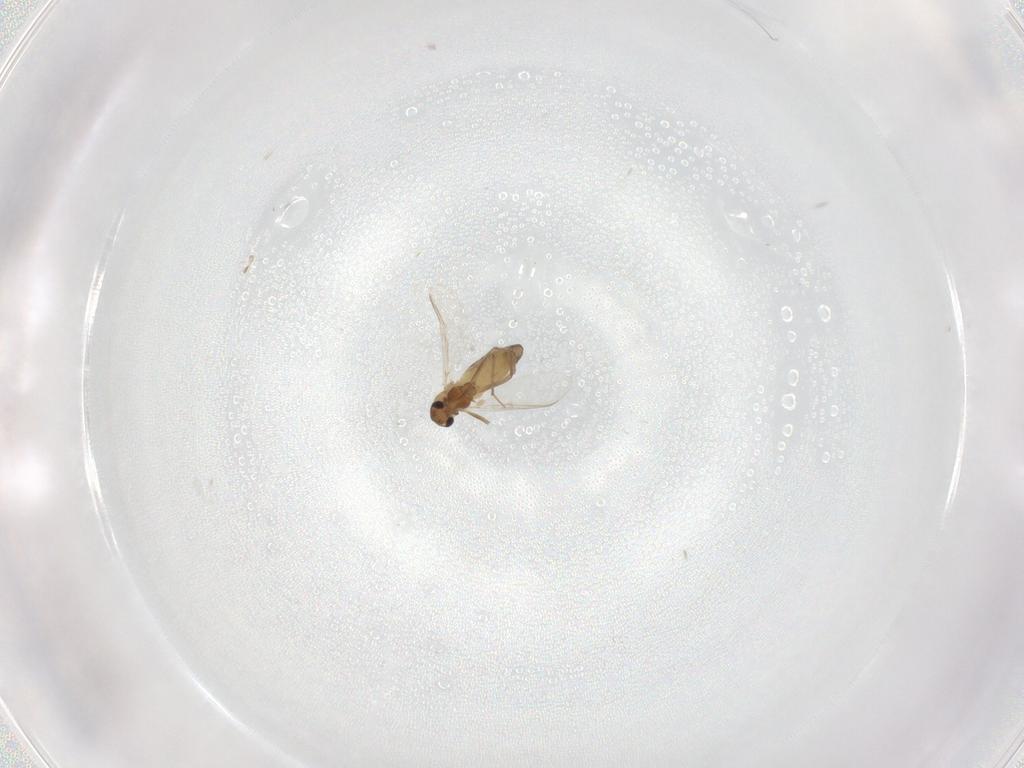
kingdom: Animalia
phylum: Arthropoda
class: Insecta
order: Diptera
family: Chironomidae
